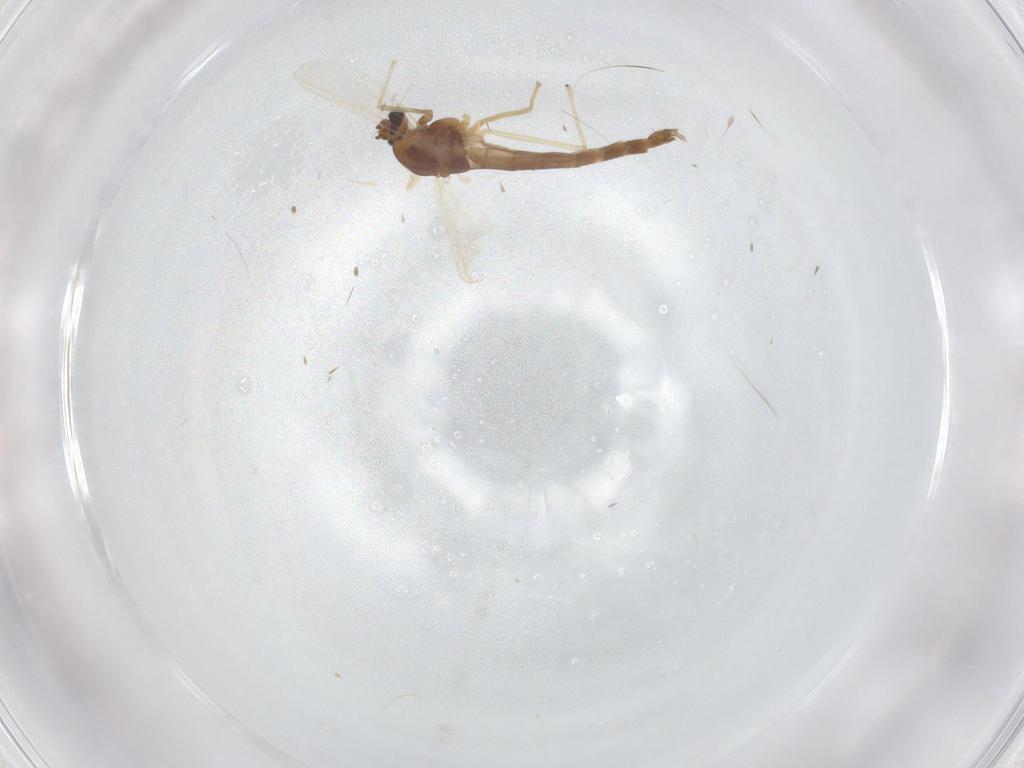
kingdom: Animalia
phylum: Arthropoda
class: Insecta
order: Diptera
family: Chironomidae
